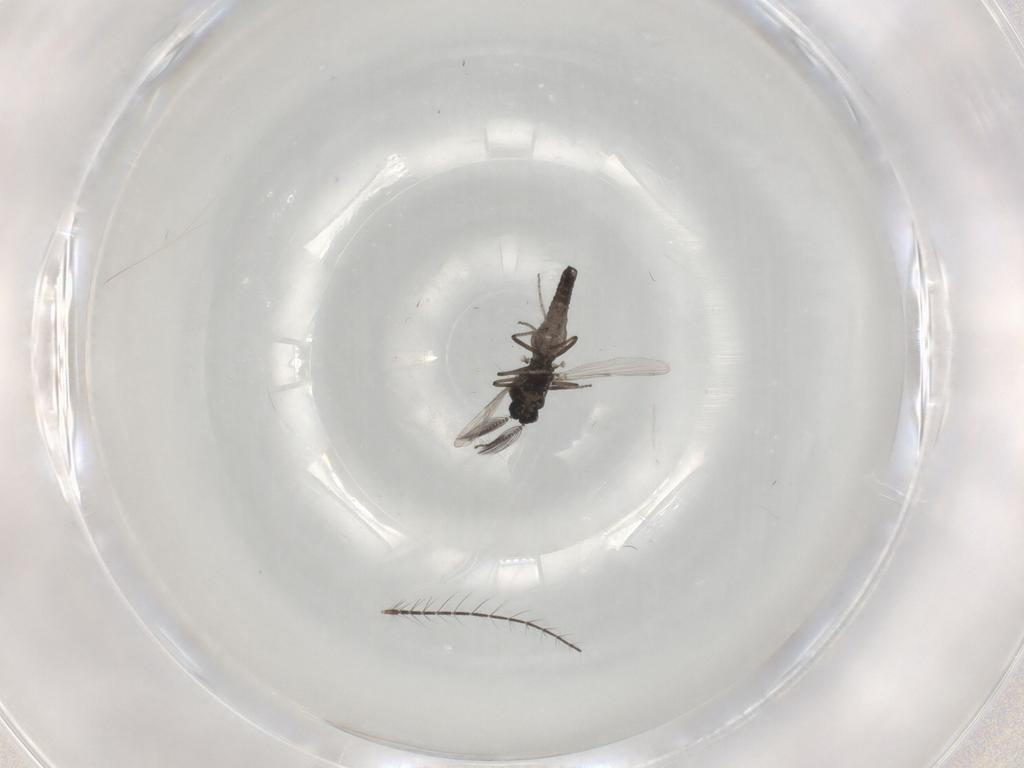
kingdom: Animalia
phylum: Arthropoda
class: Insecta
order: Diptera
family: Ceratopogonidae
